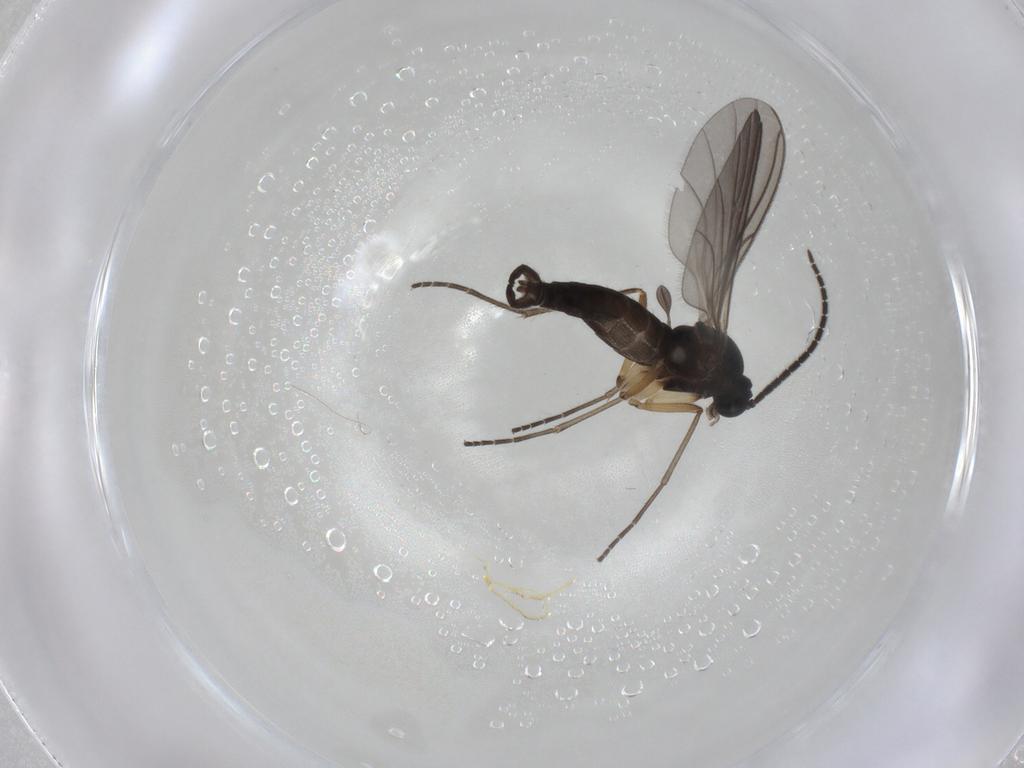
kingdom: Animalia
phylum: Arthropoda
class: Insecta
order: Diptera
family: Sciaridae
